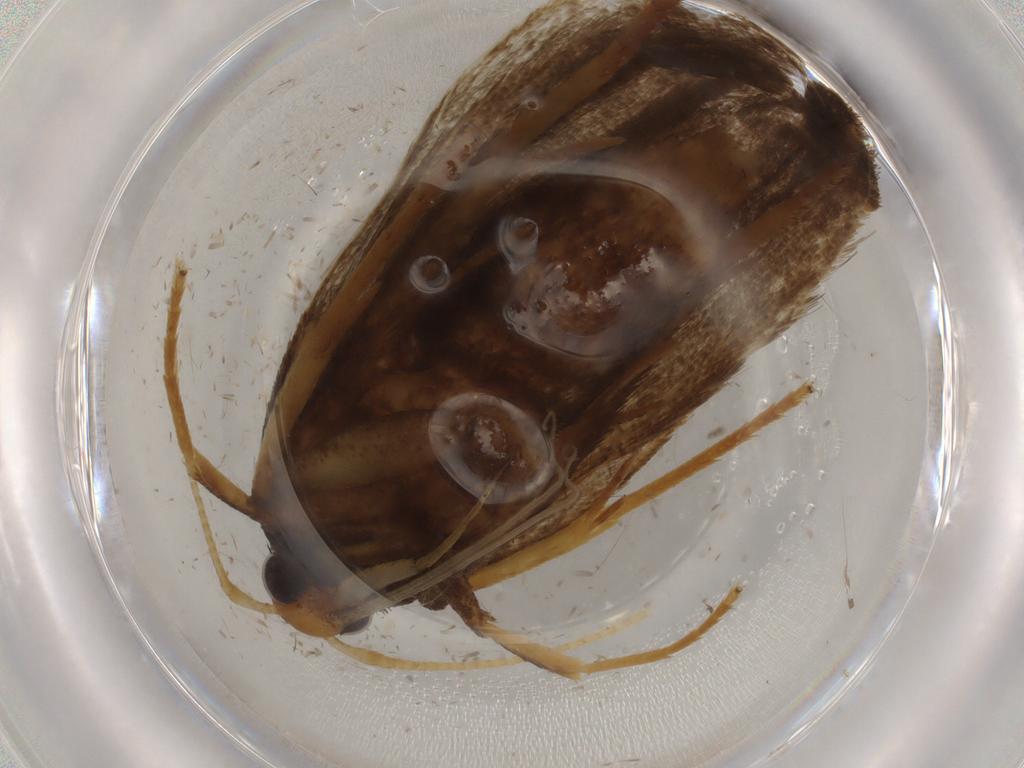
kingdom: Animalia
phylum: Arthropoda
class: Insecta
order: Lepidoptera
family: Lecithoceridae
